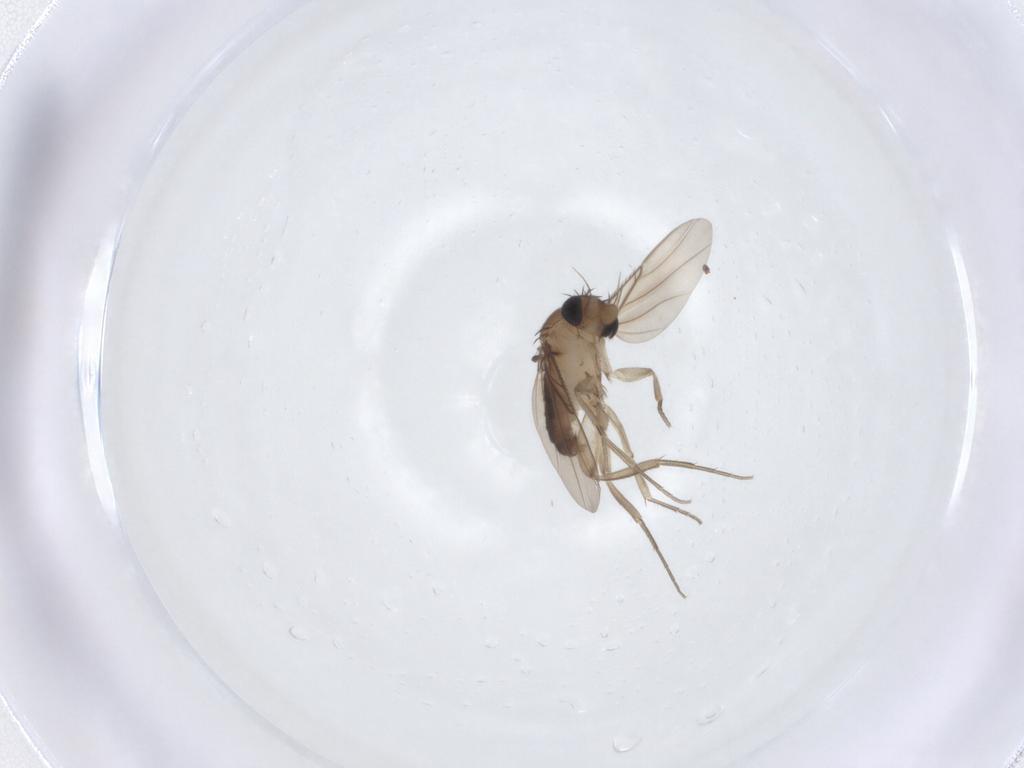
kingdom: Animalia
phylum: Arthropoda
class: Insecta
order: Diptera
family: Phoridae
